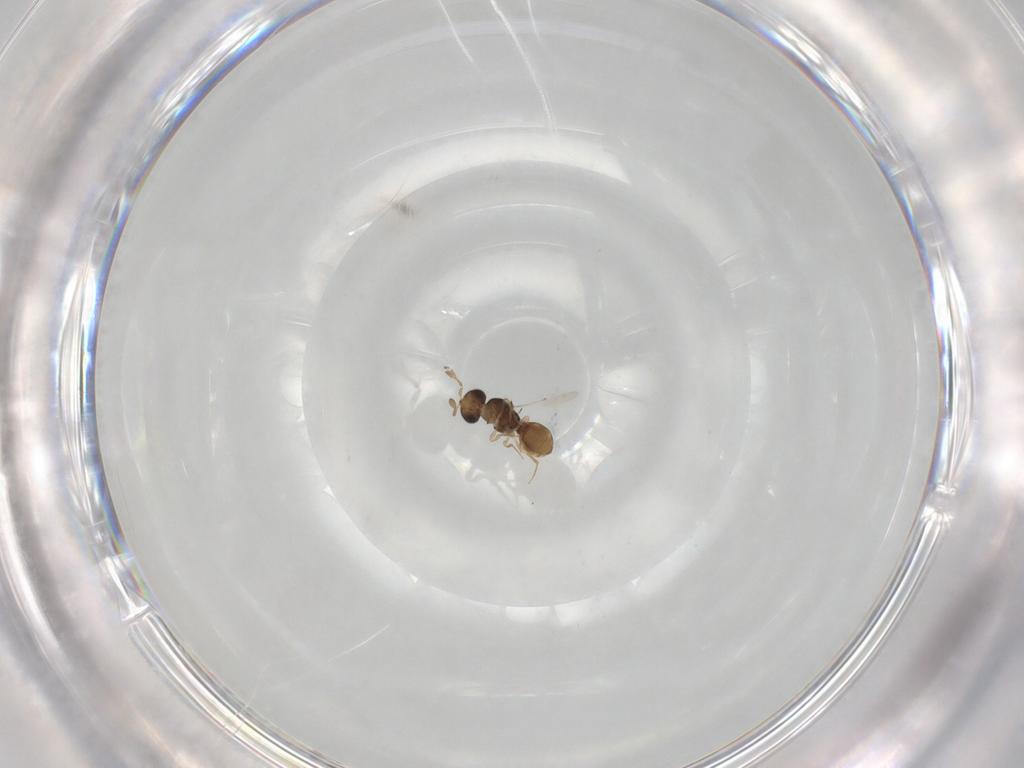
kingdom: Animalia
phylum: Arthropoda
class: Insecta
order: Hymenoptera
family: Scelionidae
